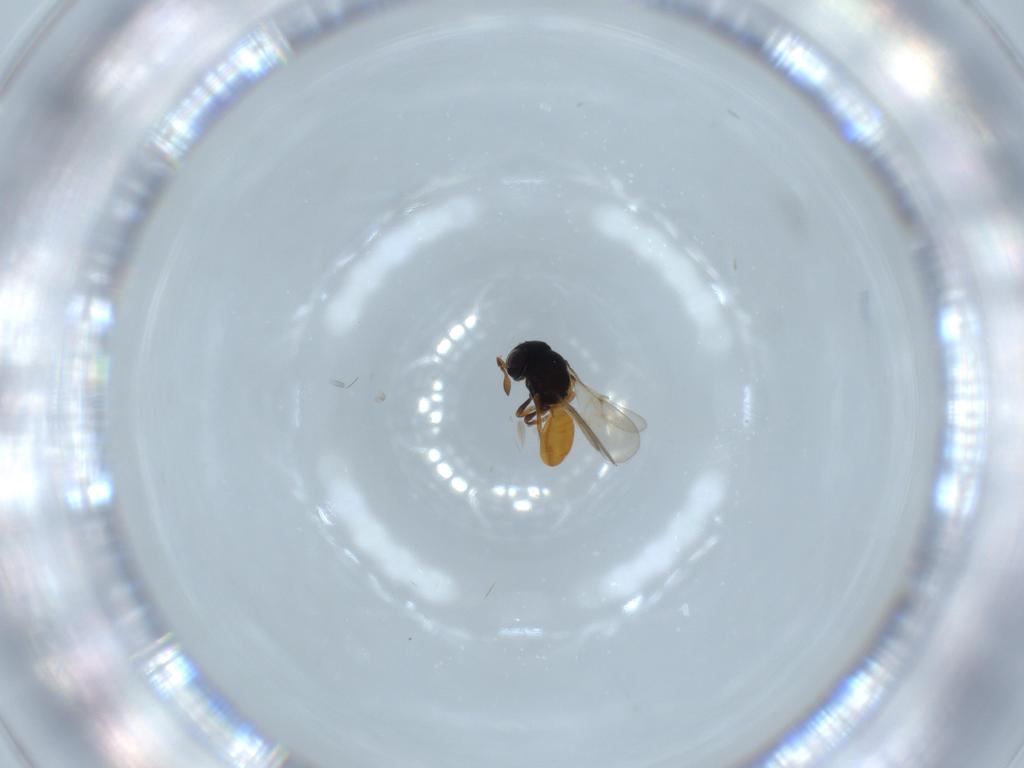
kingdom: Animalia
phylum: Arthropoda
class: Insecta
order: Hymenoptera
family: Scelionidae
